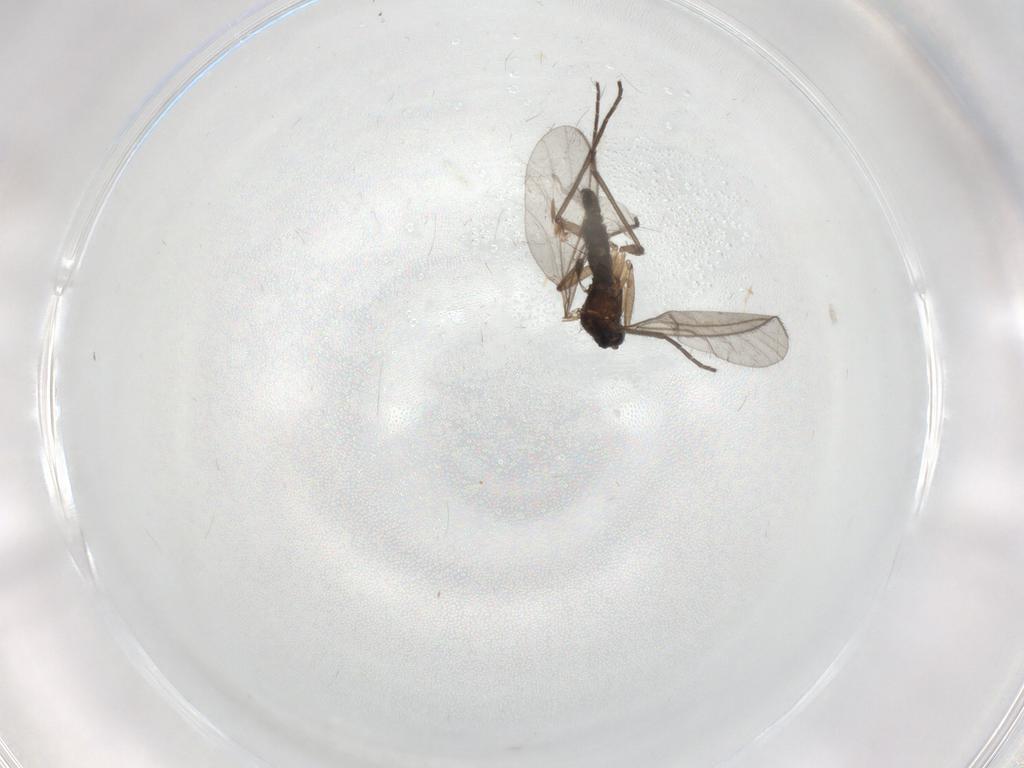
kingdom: Animalia
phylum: Arthropoda
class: Insecta
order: Diptera
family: Sciaridae
